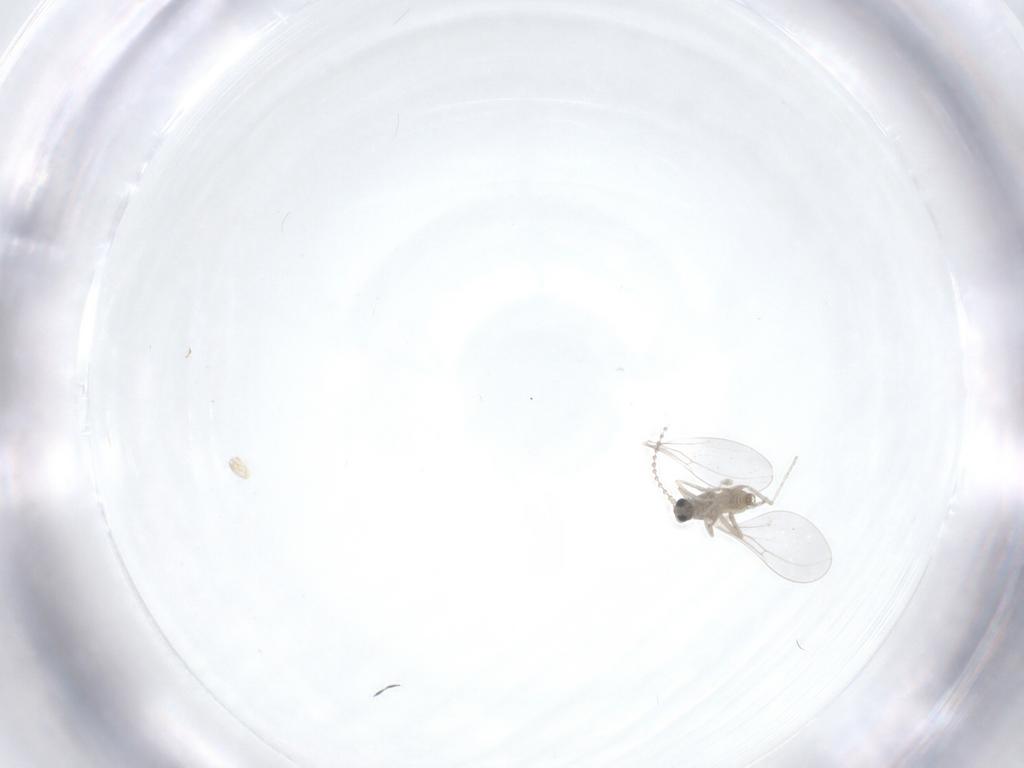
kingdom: Animalia
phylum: Arthropoda
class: Insecta
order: Diptera
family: Cecidomyiidae
